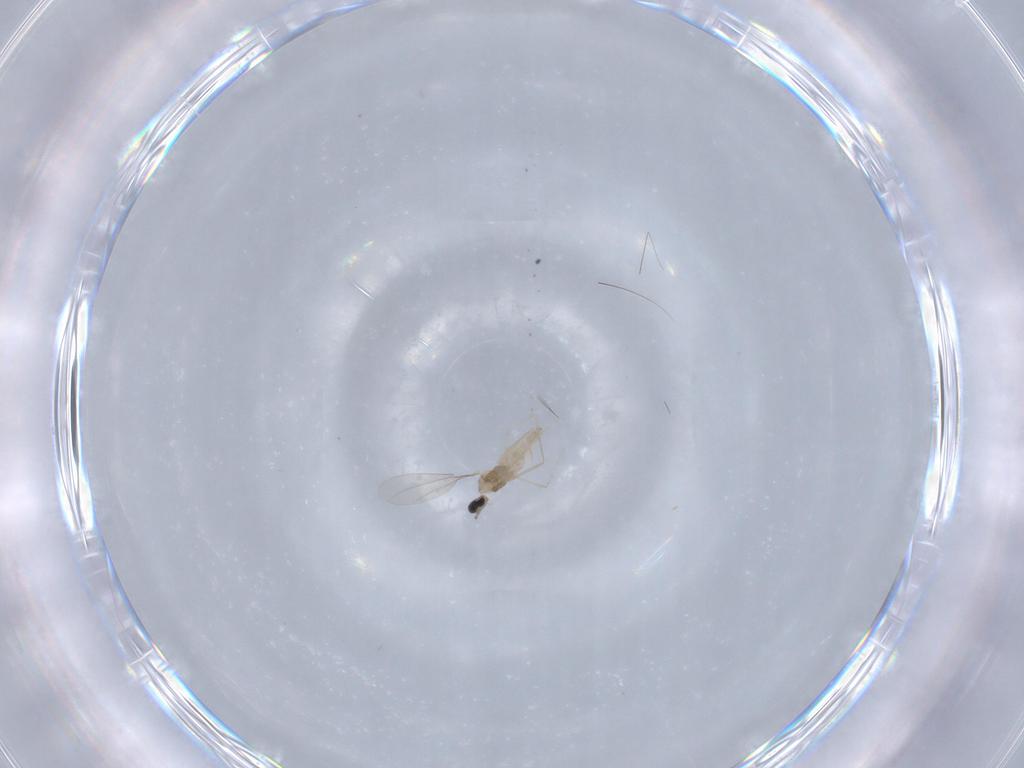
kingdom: Animalia
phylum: Arthropoda
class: Insecta
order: Diptera
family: Cecidomyiidae
